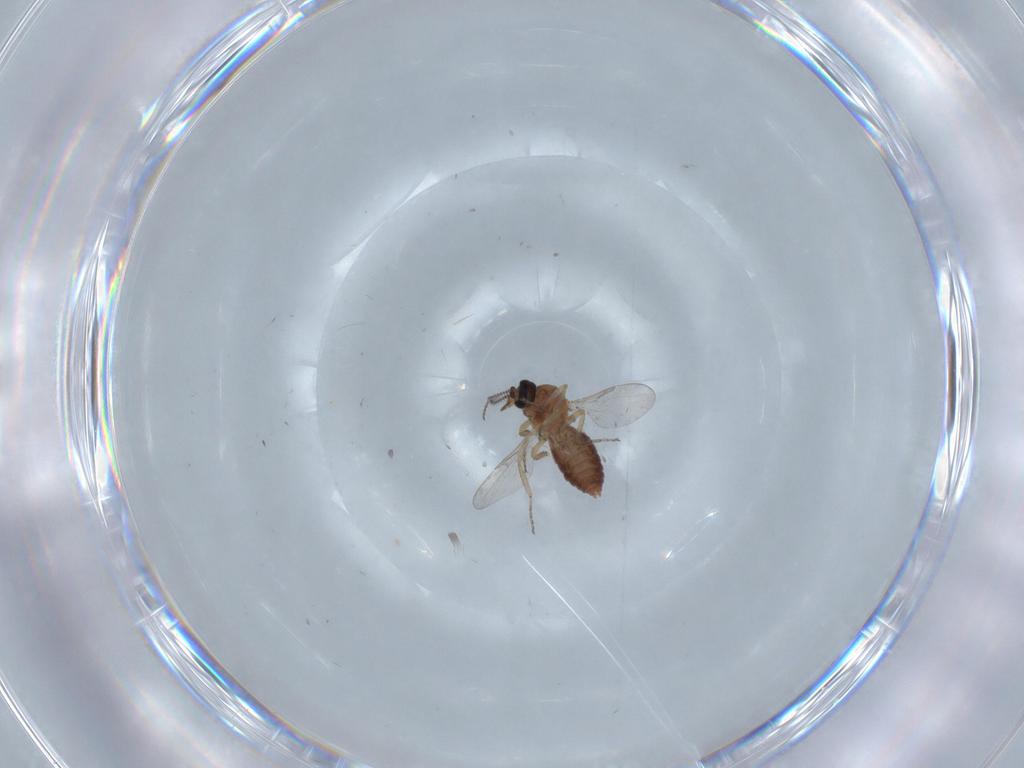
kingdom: Animalia
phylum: Arthropoda
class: Insecta
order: Diptera
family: Ceratopogonidae
